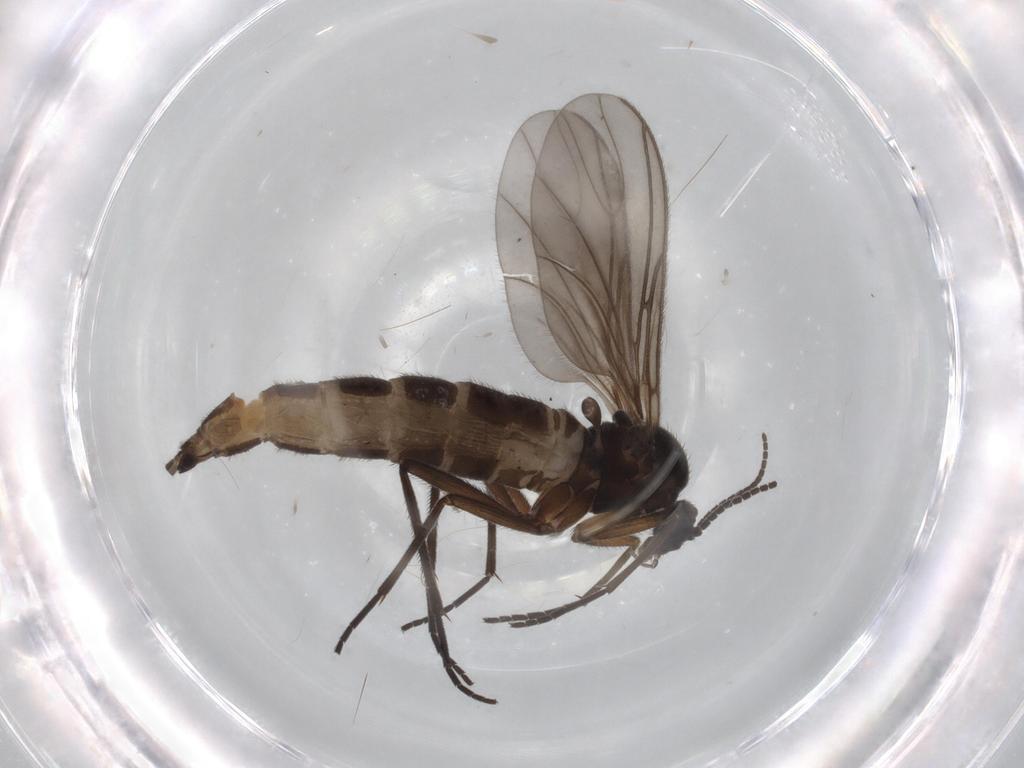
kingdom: Animalia
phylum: Arthropoda
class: Insecta
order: Diptera
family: Sciaridae
